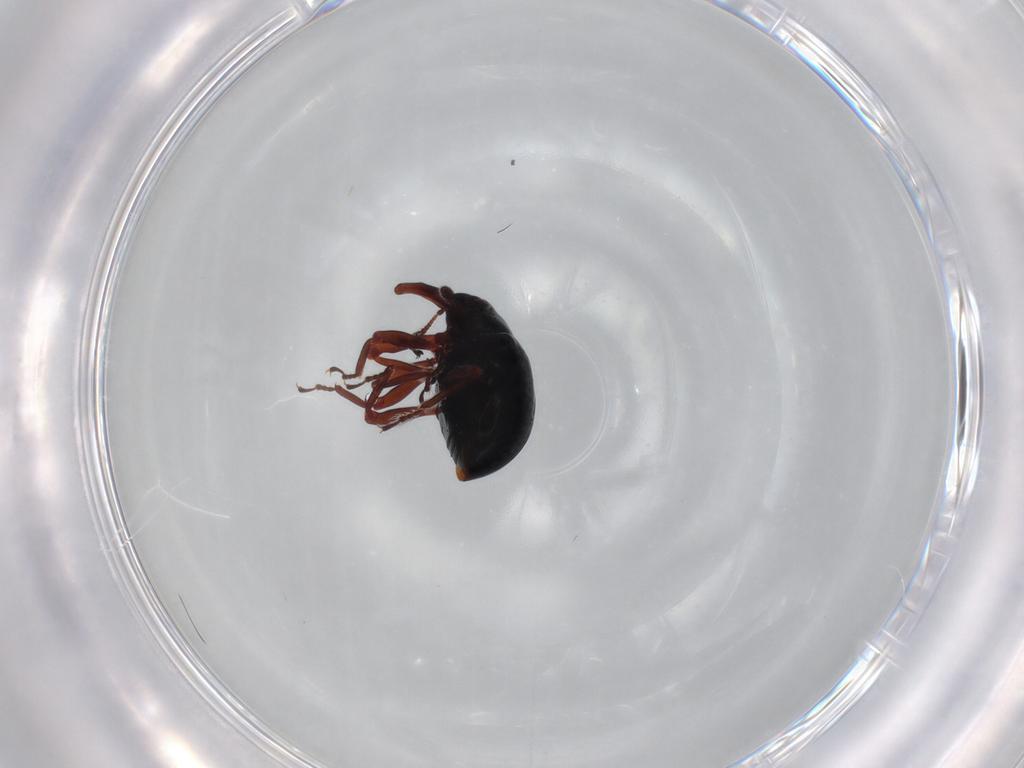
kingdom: Animalia
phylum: Arthropoda
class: Insecta
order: Coleoptera
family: Curculionidae
